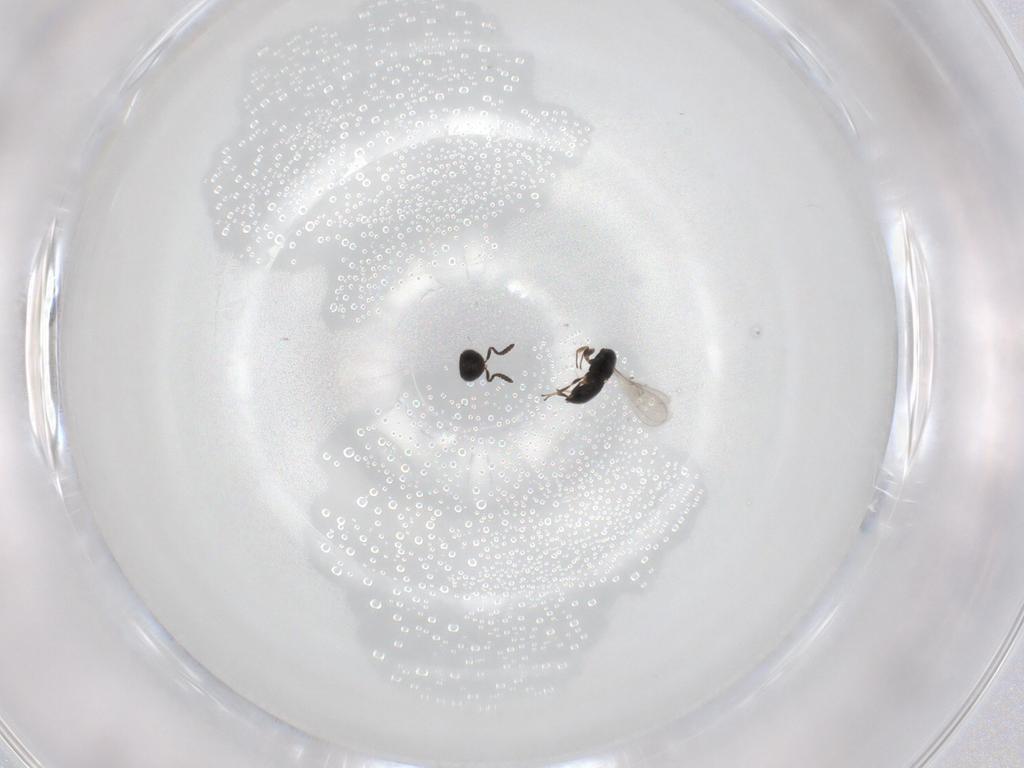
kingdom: Animalia
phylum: Arthropoda
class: Insecta
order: Hymenoptera
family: Scelionidae
